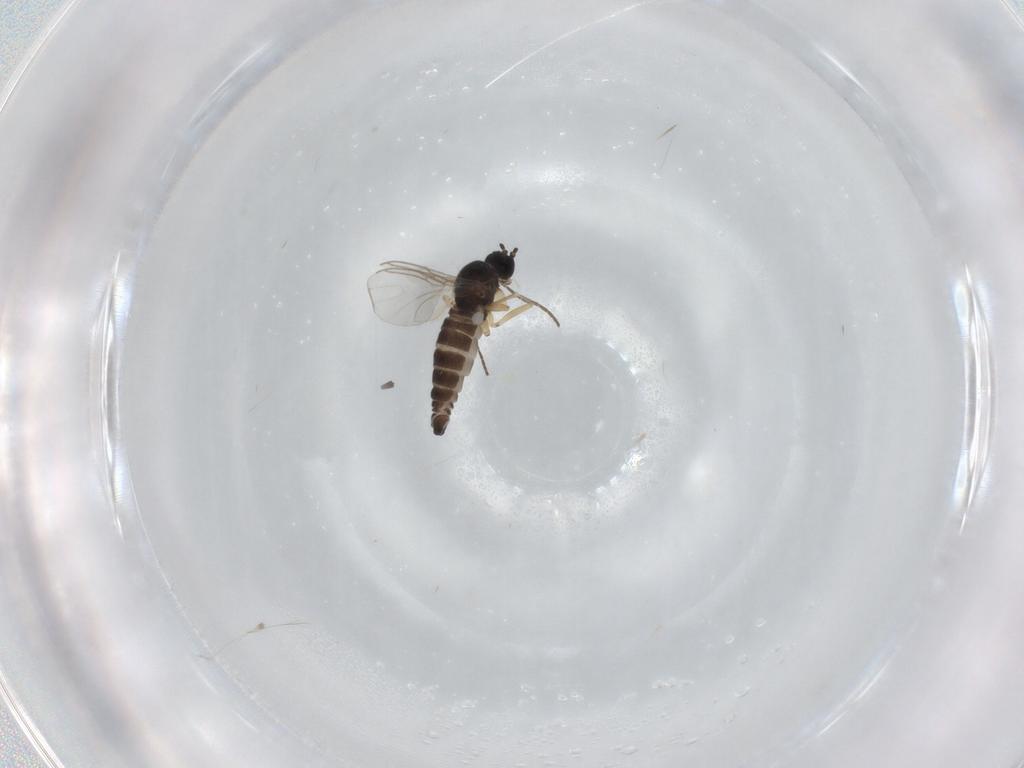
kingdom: Animalia
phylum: Arthropoda
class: Insecta
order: Diptera
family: Sciaridae
